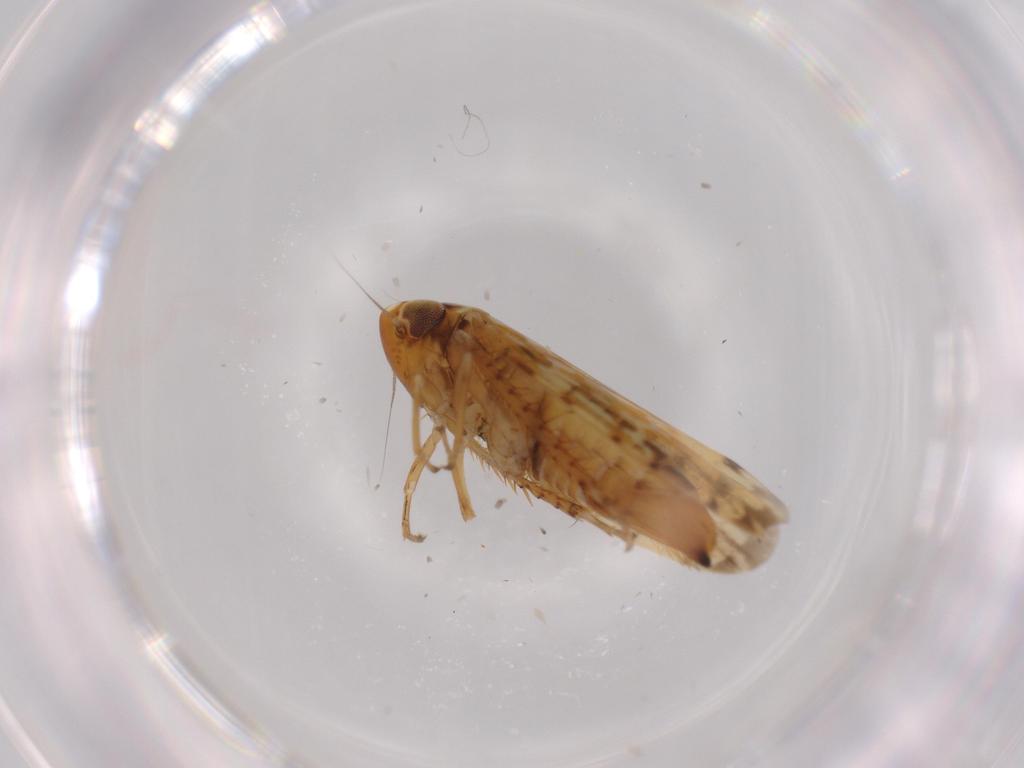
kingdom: Animalia
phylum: Arthropoda
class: Insecta
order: Hemiptera
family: Cicadellidae
